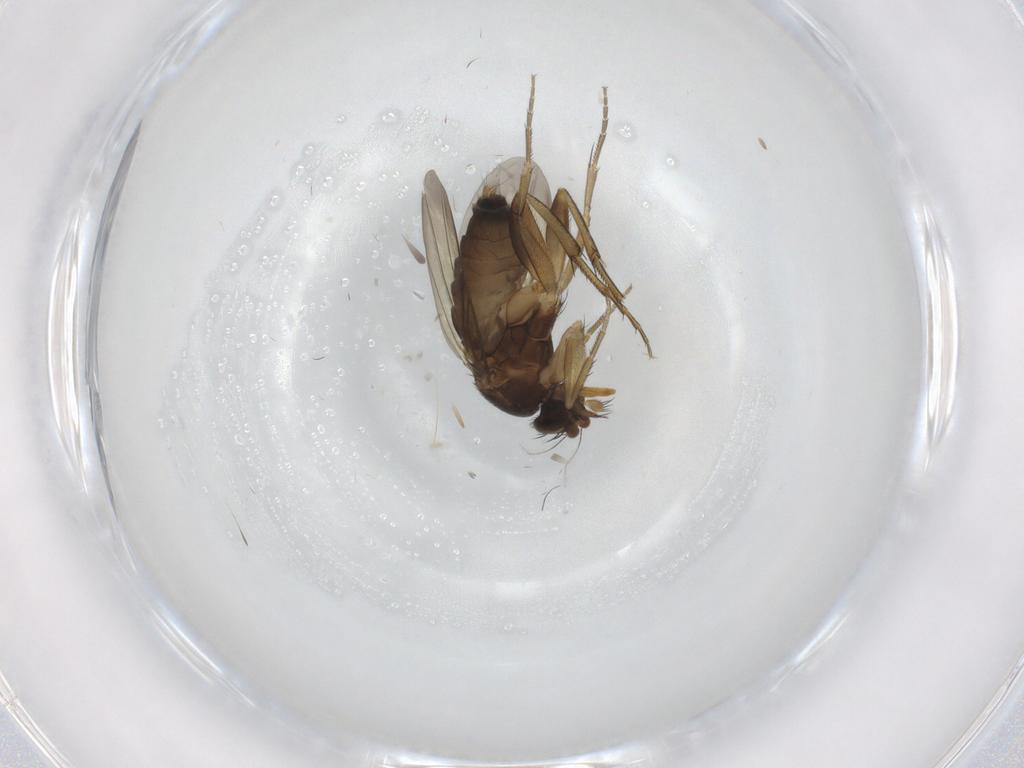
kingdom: Animalia
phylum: Arthropoda
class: Insecta
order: Diptera
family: Phoridae
